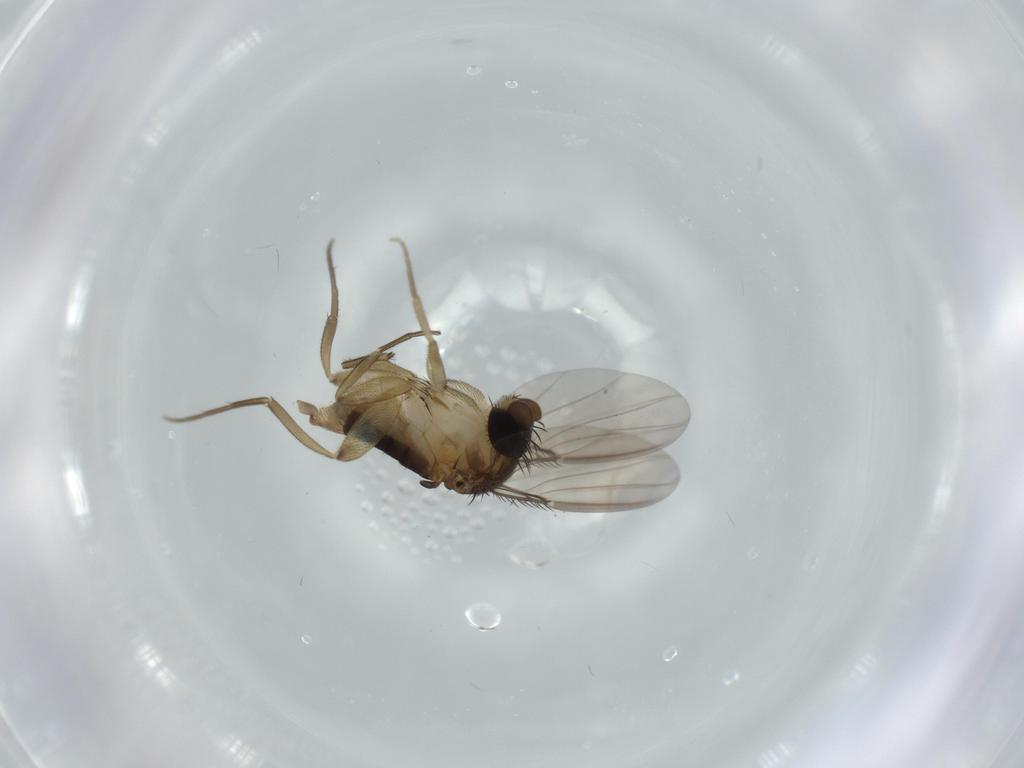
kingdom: Animalia
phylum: Arthropoda
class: Insecta
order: Diptera
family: Phoridae
